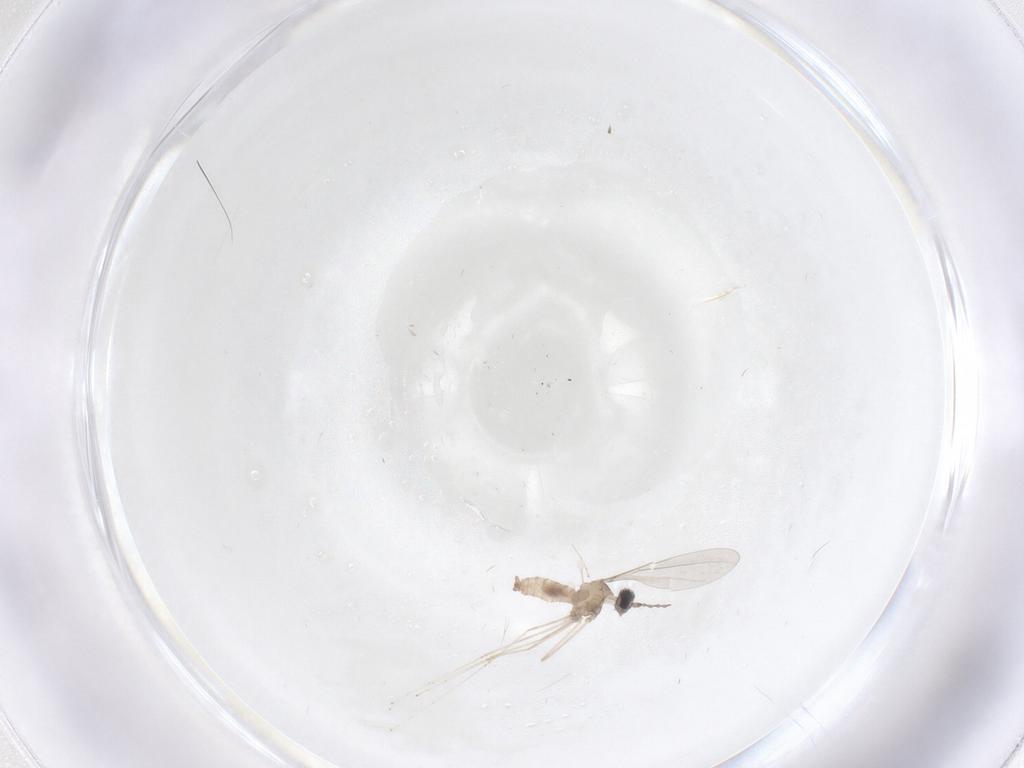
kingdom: Animalia
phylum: Arthropoda
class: Insecta
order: Diptera
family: Cecidomyiidae
